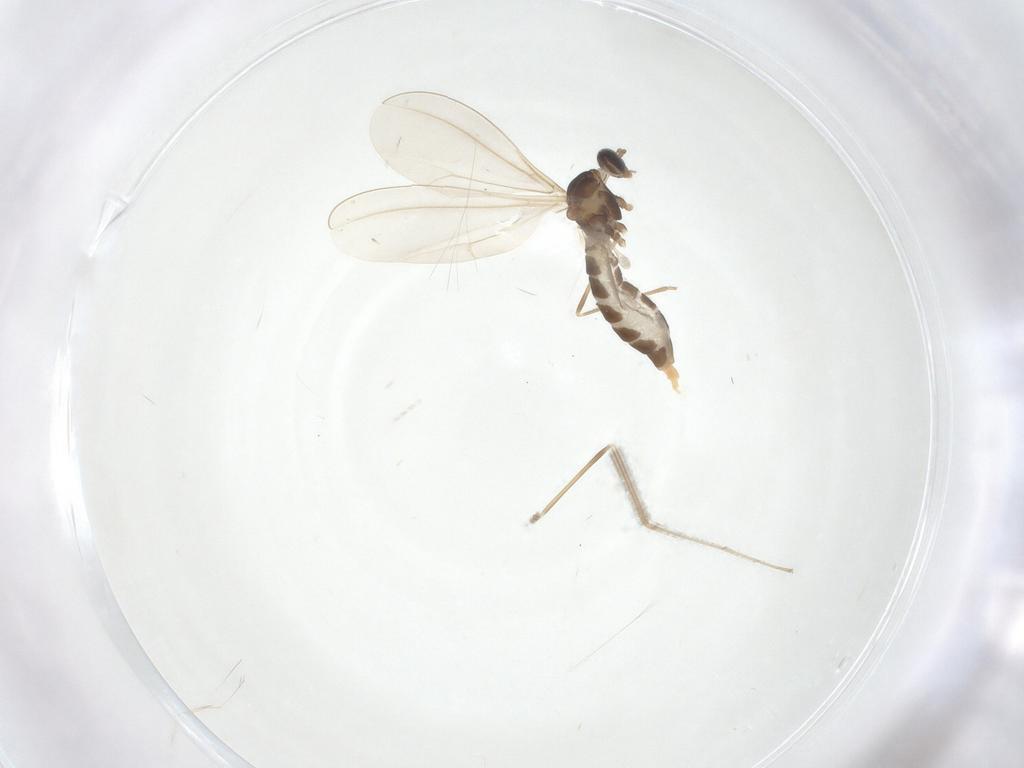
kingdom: Animalia
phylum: Arthropoda
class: Insecta
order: Diptera
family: Cecidomyiidae
